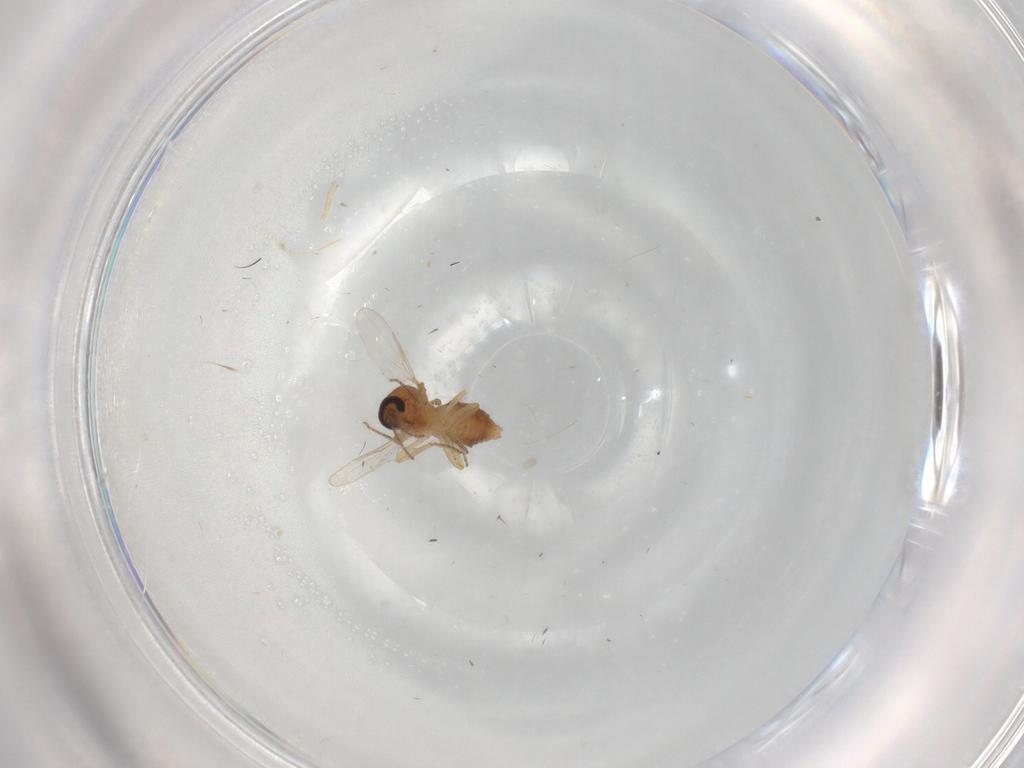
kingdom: Animalia
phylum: Arthropoda
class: Insecta
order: Diptera
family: Ceratopogonidae
